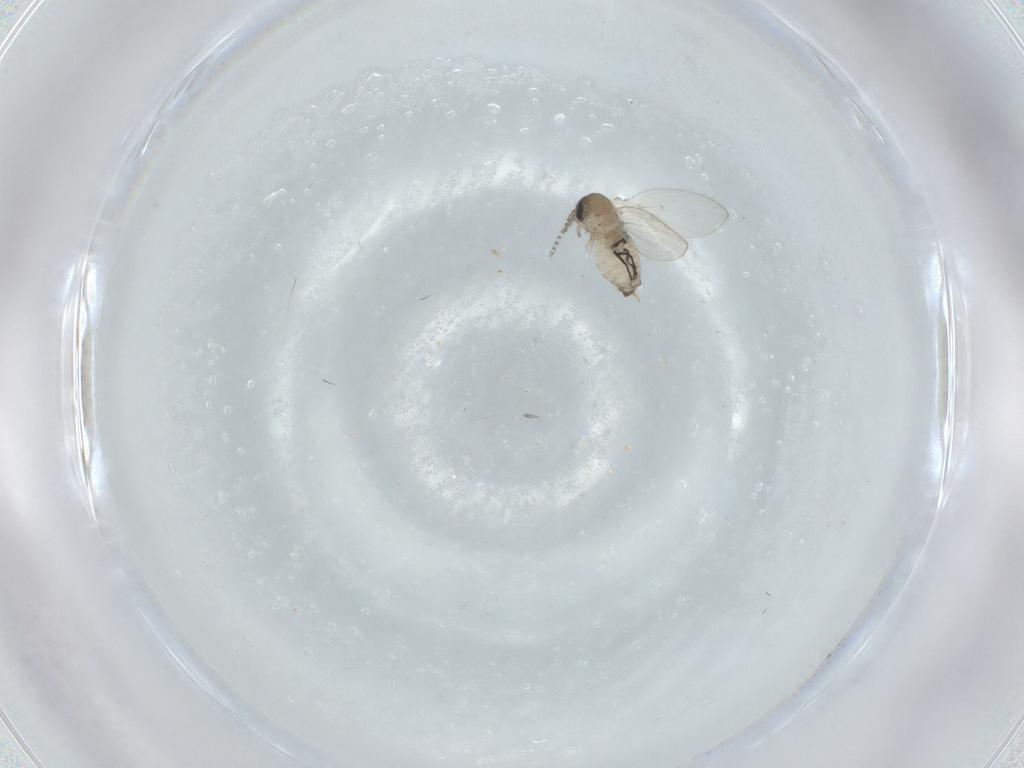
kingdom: Animalia
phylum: Arthropoda
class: Insecta
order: Diptera
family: Psychodidae
